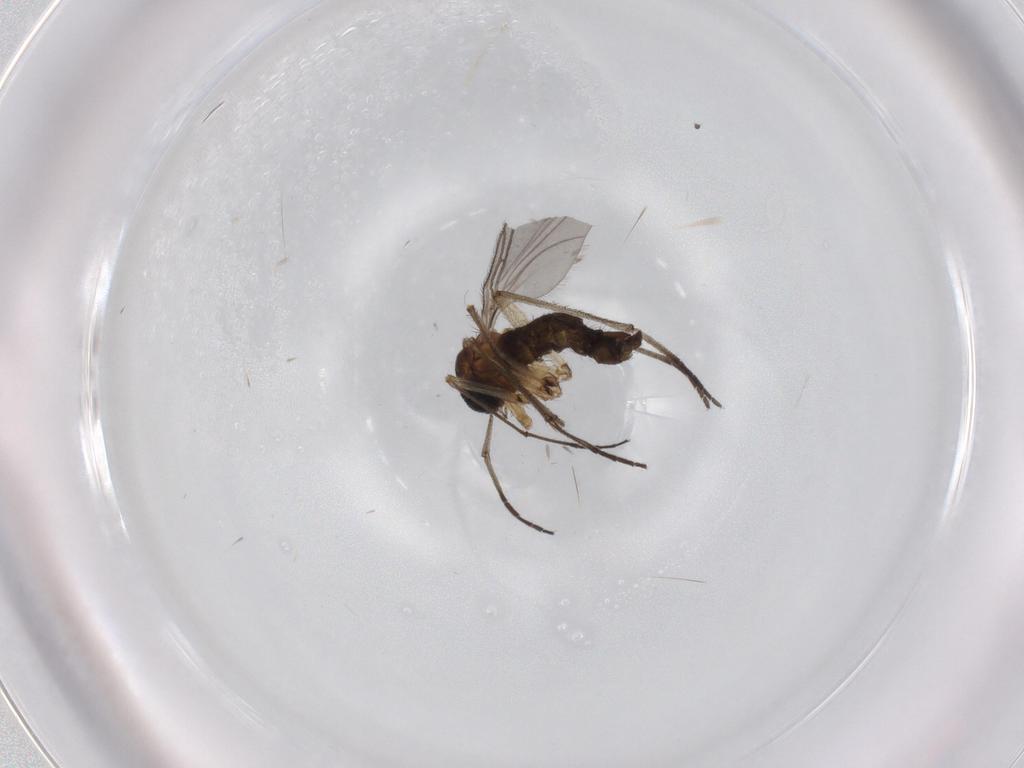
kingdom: Animalia
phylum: Arthropoda
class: Insecta
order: Diptera
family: Sciaridae
